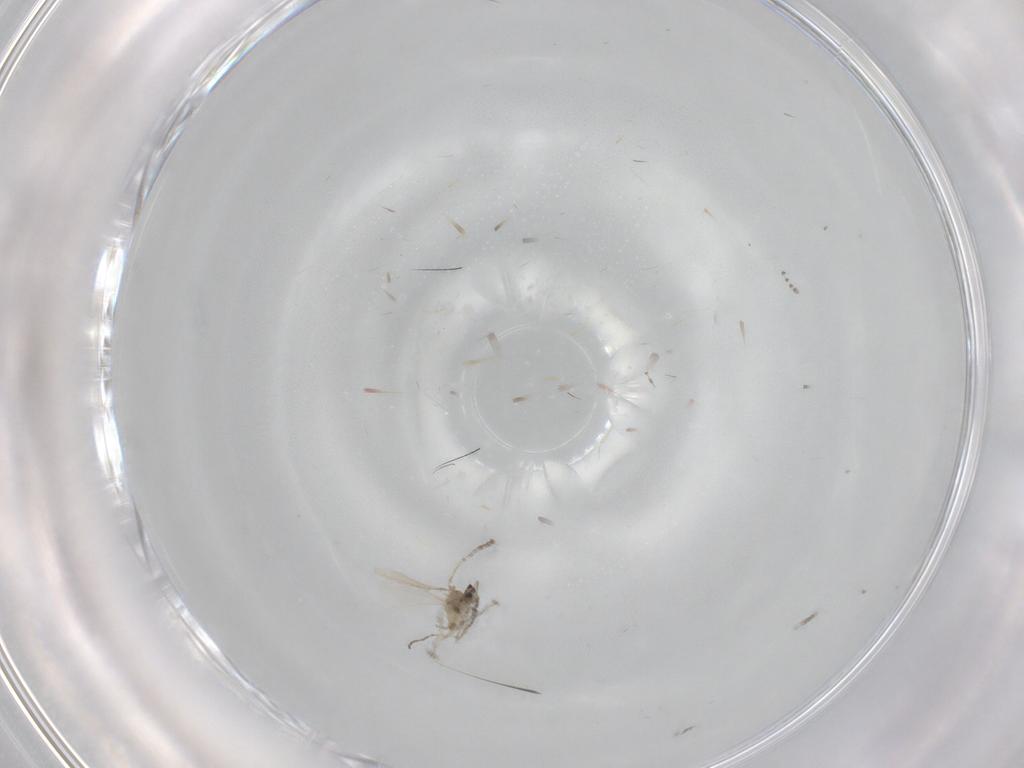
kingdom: Animalia
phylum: Arthropoda
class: Insecta
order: Diptera
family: Cecidomyiidae
